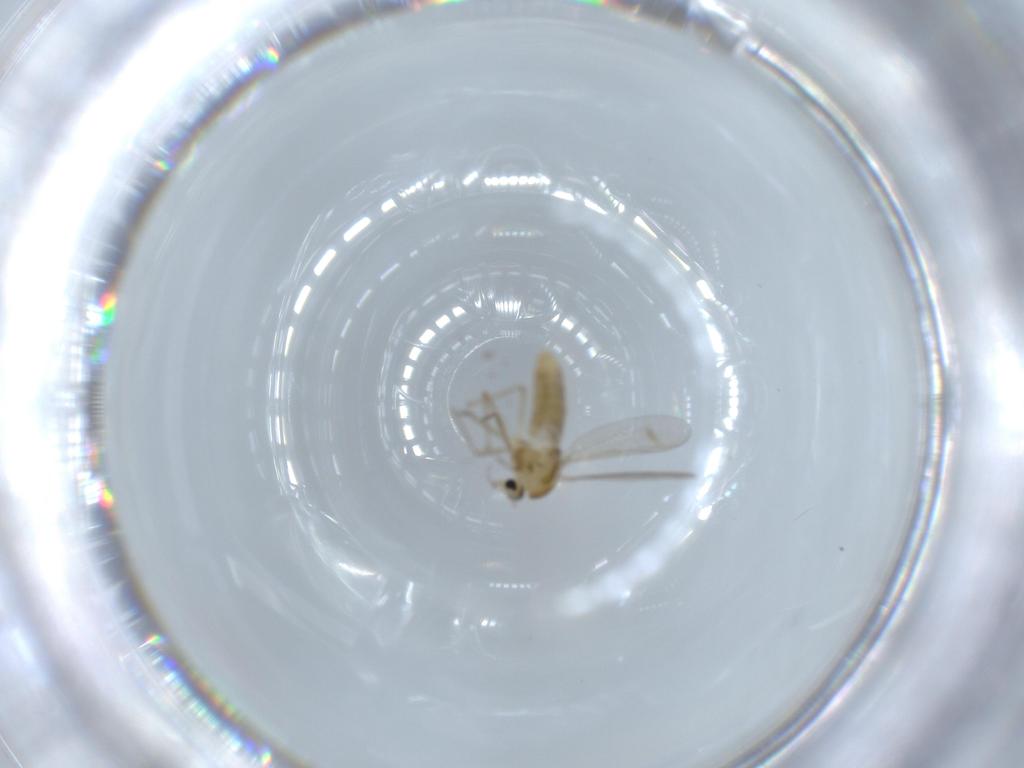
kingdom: Animalia
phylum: Arthropoda
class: Insecta
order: Diptera
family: Chironomidae
